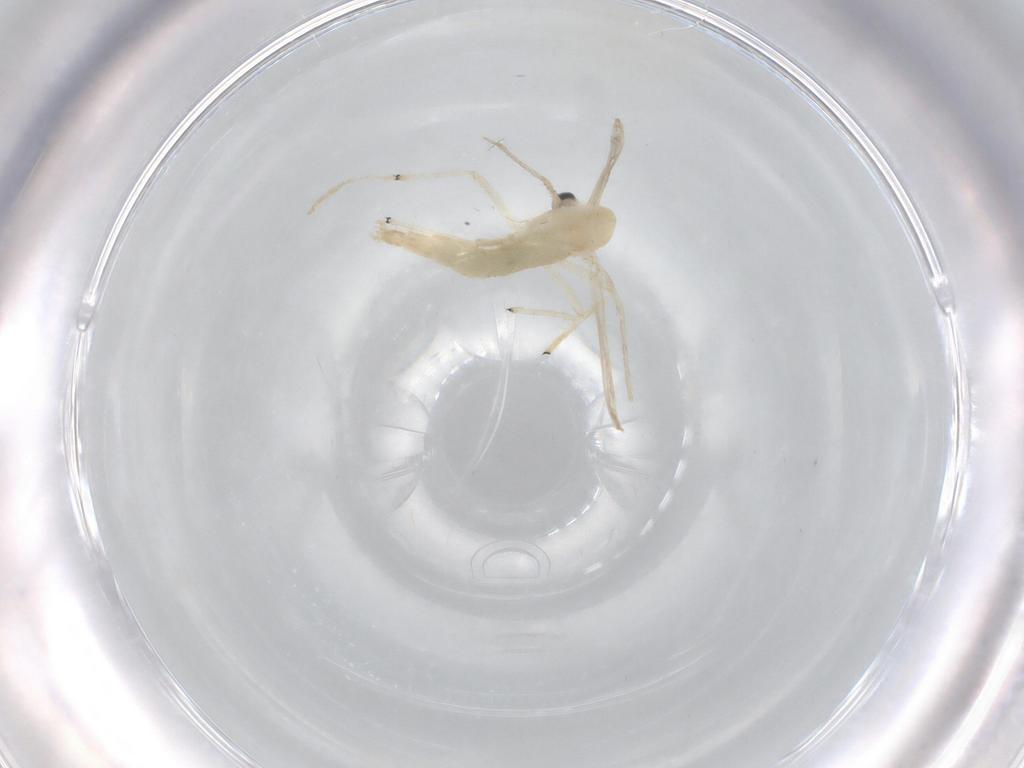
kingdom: Animalia
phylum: Arthropoda
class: Insecta
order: Diptera
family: Chironomidae
